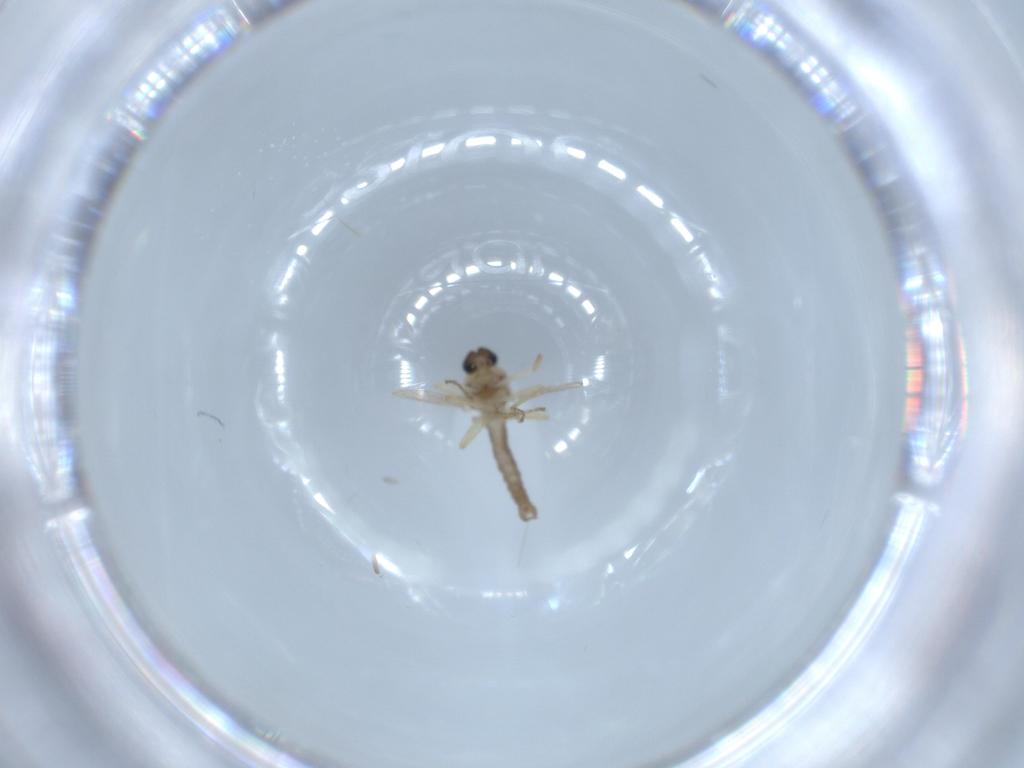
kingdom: Animalia
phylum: Arthropoda
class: Insecta
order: Diptera
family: Ceratopogonidae
